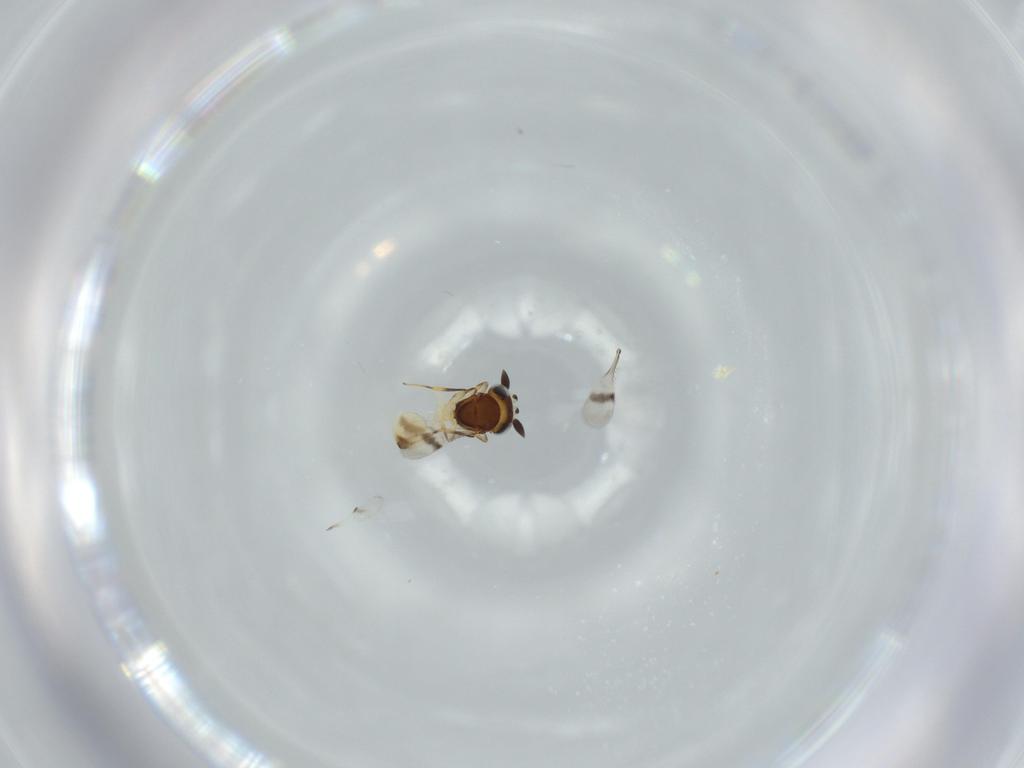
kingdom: Animalia
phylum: Arthropoda
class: Arachnida
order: Araneae
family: Pholcidae
